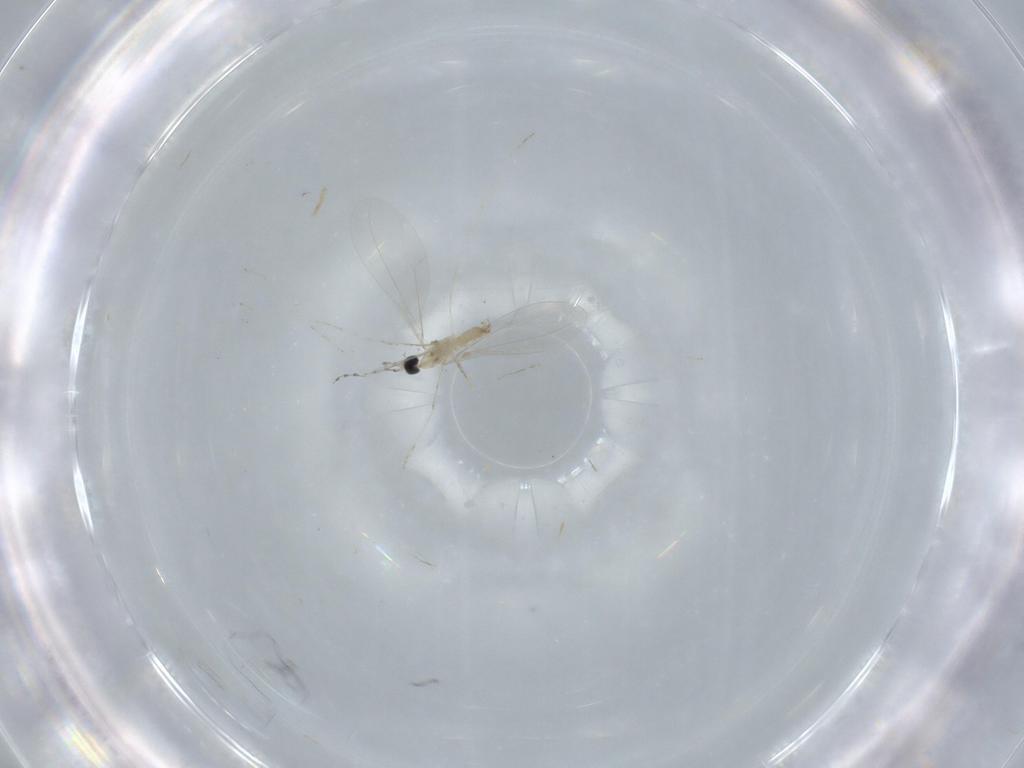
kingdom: Animalia
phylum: Arthropoda
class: Insecta
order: Diptera
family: Cecidomyiidae
